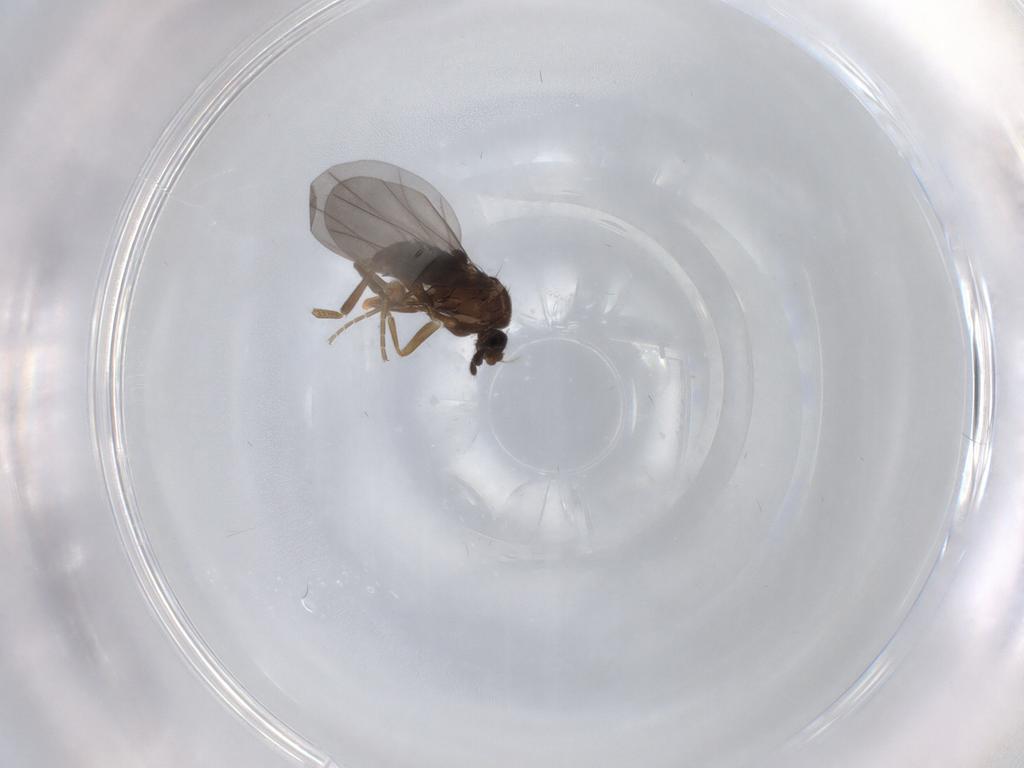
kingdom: Animalia
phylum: Arthropoda
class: Insecta
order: Diptera
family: Phoridae
